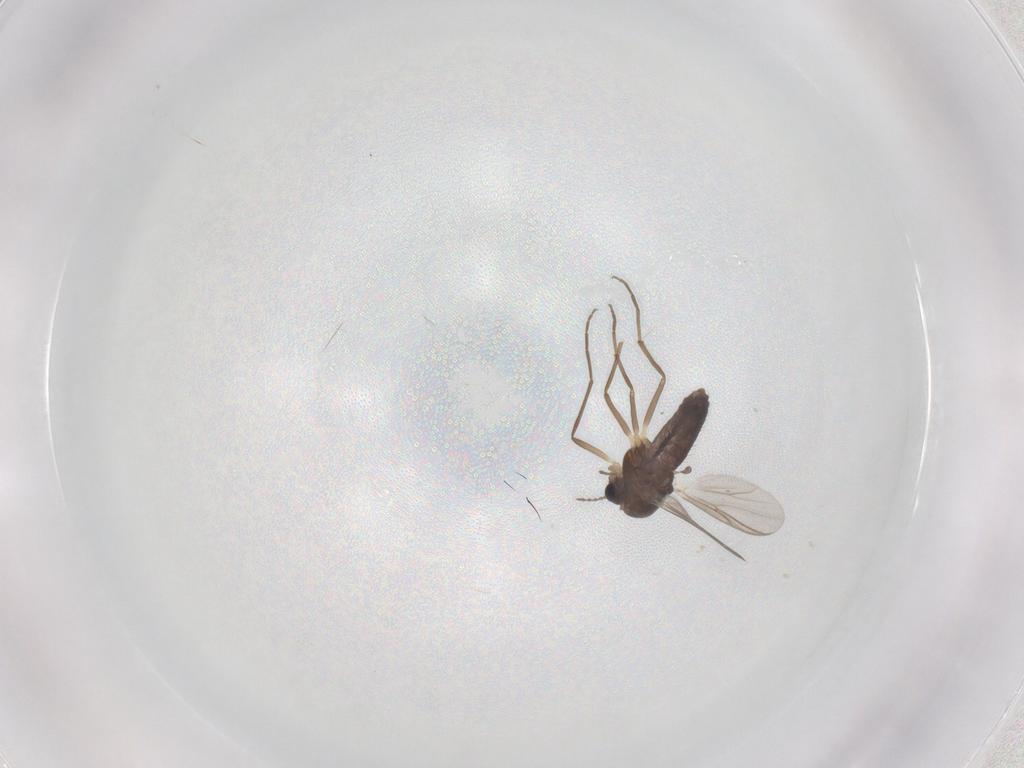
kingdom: Animalia
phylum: Arthropoda
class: Insecta
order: Diptera
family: Chironomidae
